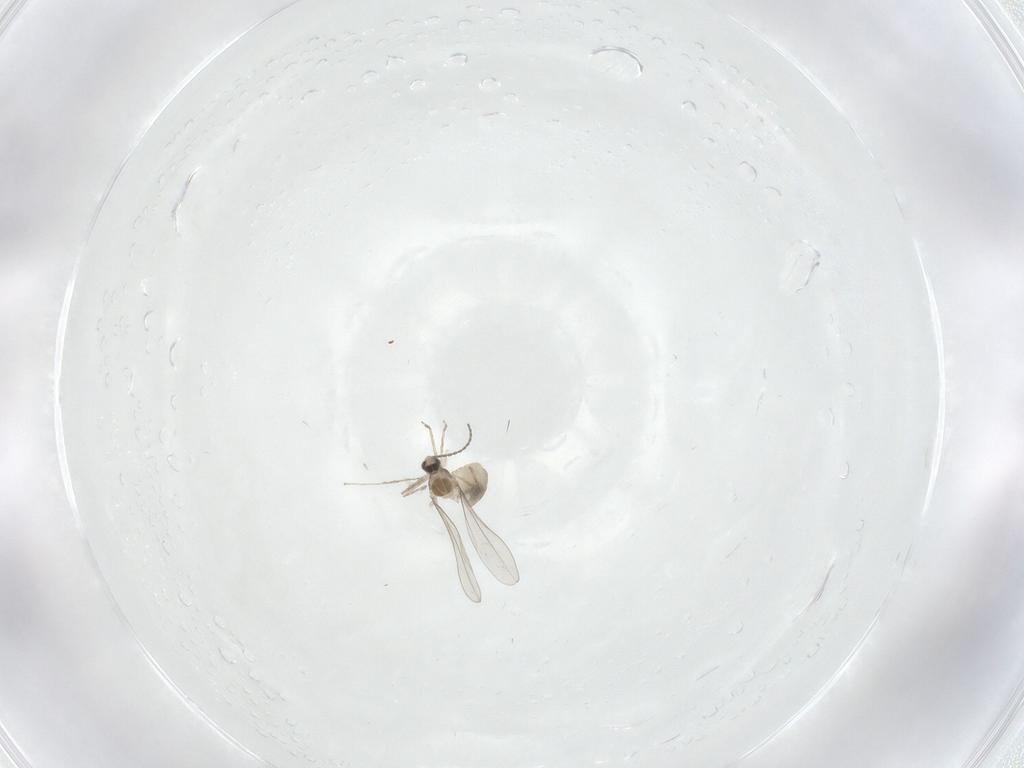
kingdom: Animalia
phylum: Arthropoda
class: Insecta
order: Diptera
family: Cecidomyiidae
